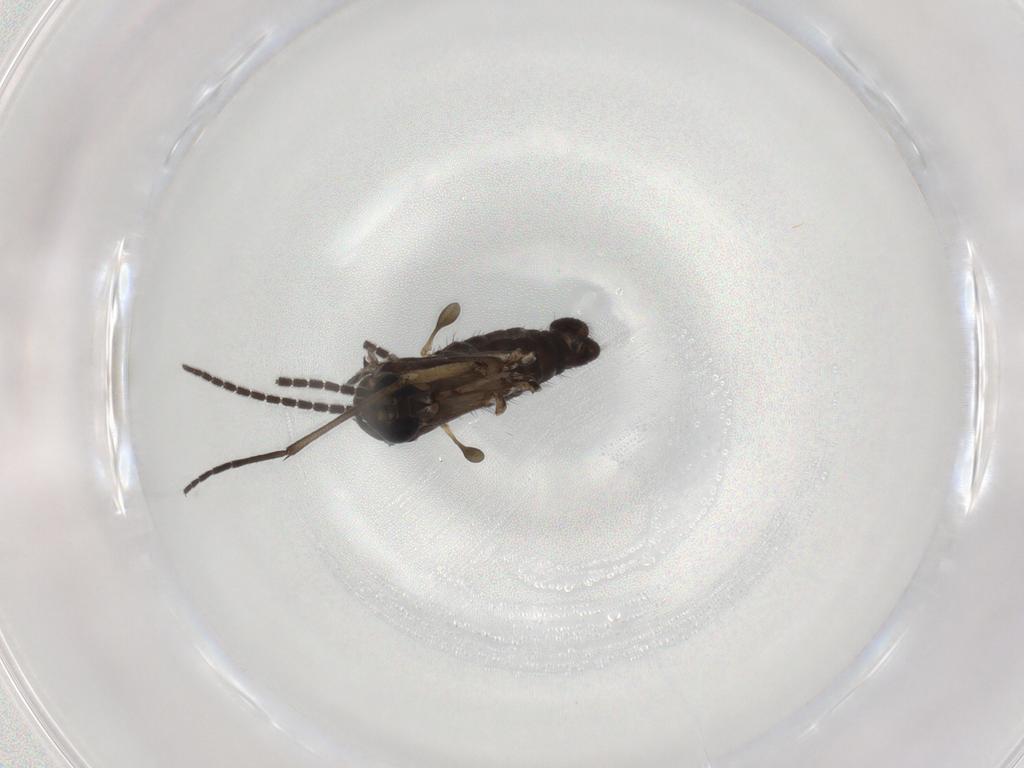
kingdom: Animalia
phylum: Arthropoda
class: Insecta
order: Diptera
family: Sciaridae
